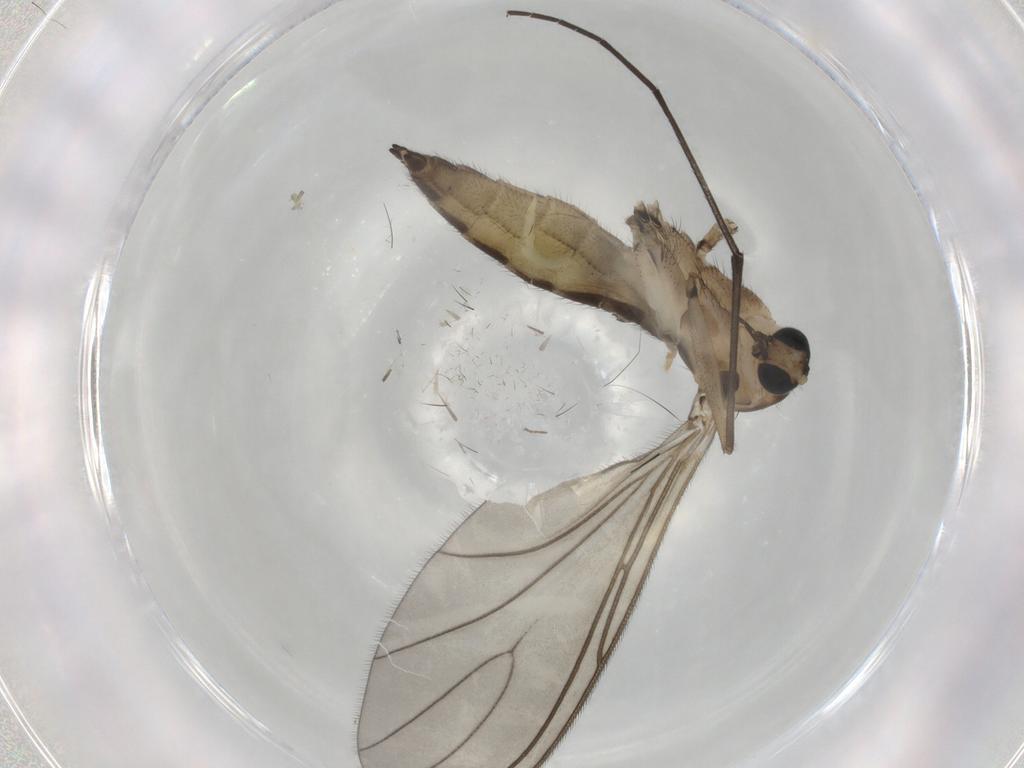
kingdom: Animalia
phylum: Arthropoda
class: Insecta
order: Diptera
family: Sciaridae
